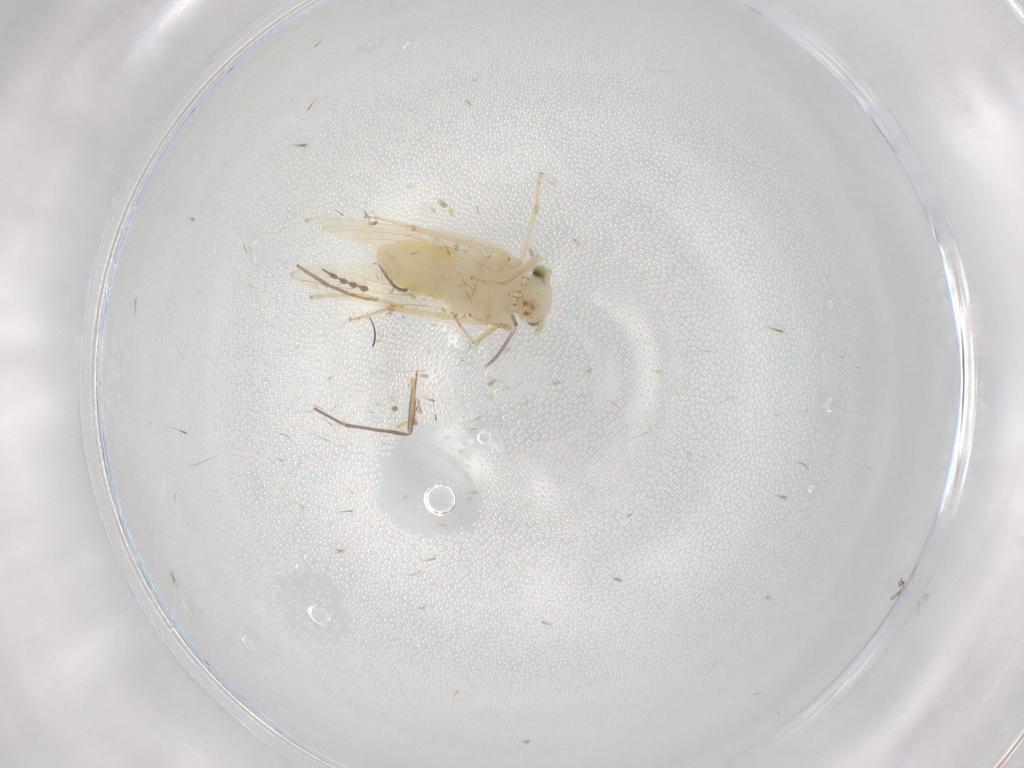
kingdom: Animalia
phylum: Arthropoda
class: Insecta
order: Psocodea
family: Lepidopsocidae
